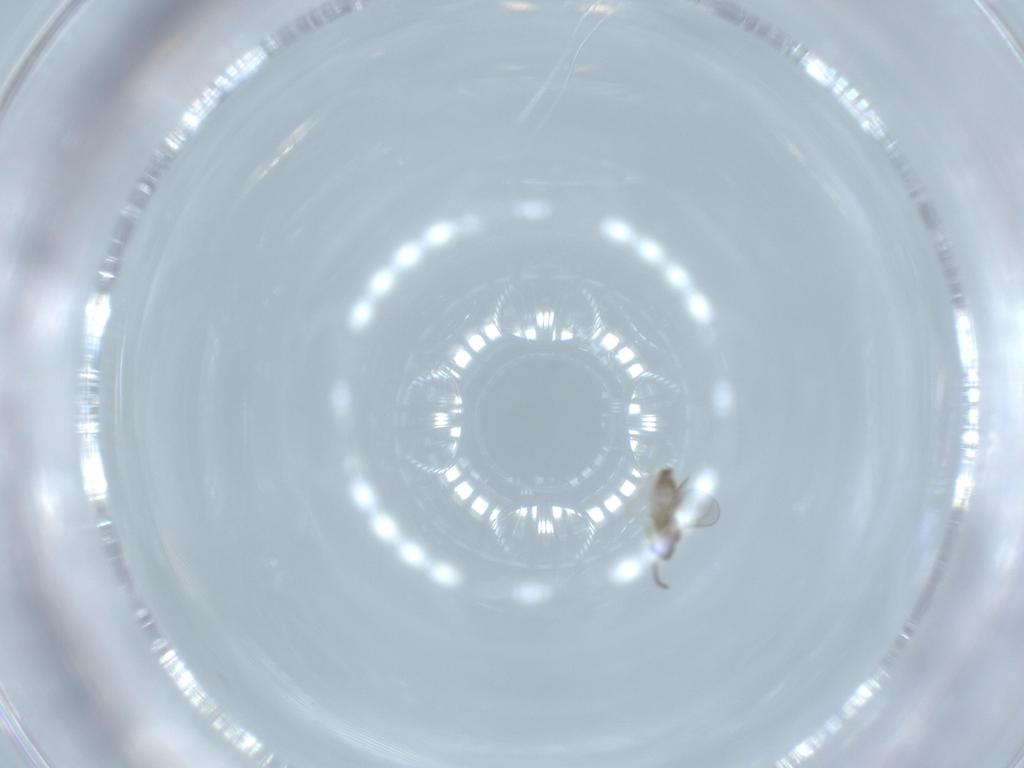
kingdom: Animalia
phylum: Arthropoda
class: Insecta
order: Diptera
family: Cecidomyiidae
